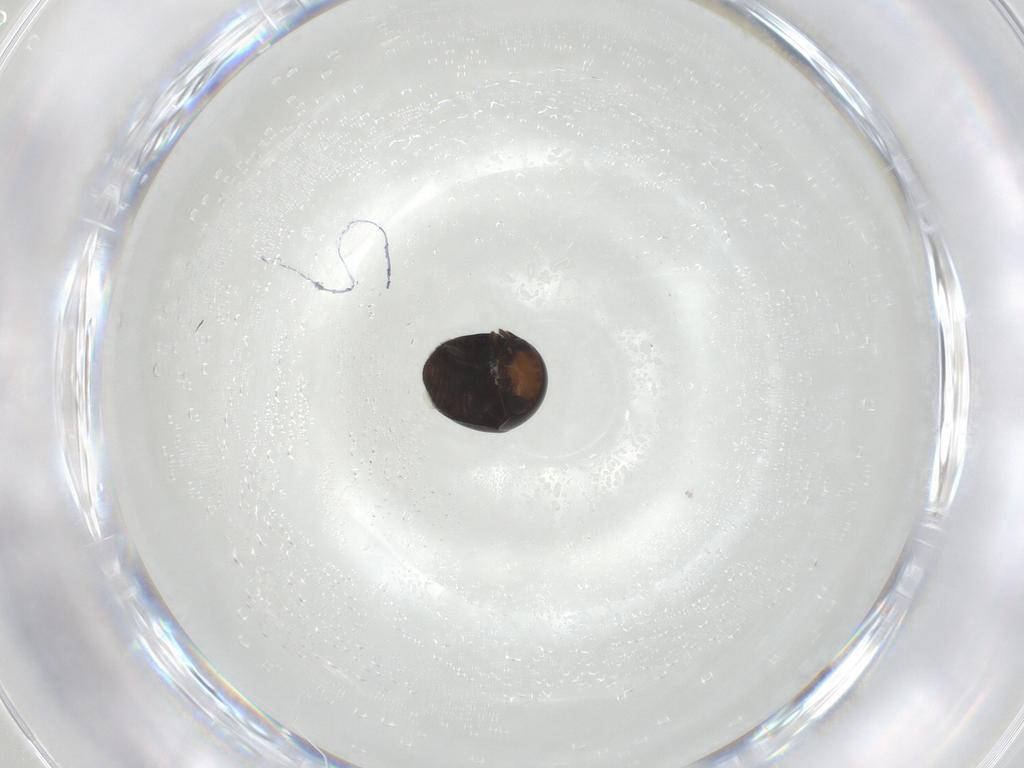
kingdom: Animalia
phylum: Arthropoda
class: Insecta
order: Coleoptera
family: Cybocephalidae
